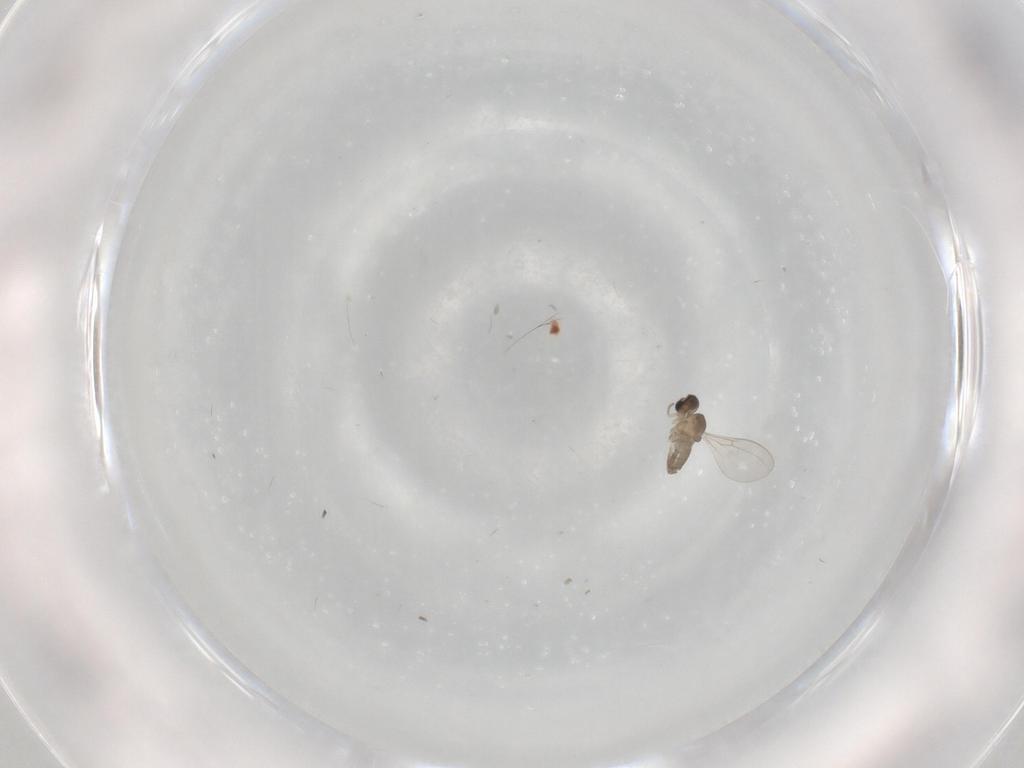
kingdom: Animalia
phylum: Arthropoda
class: Insecta
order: Diptera
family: Cecidomyiidae
